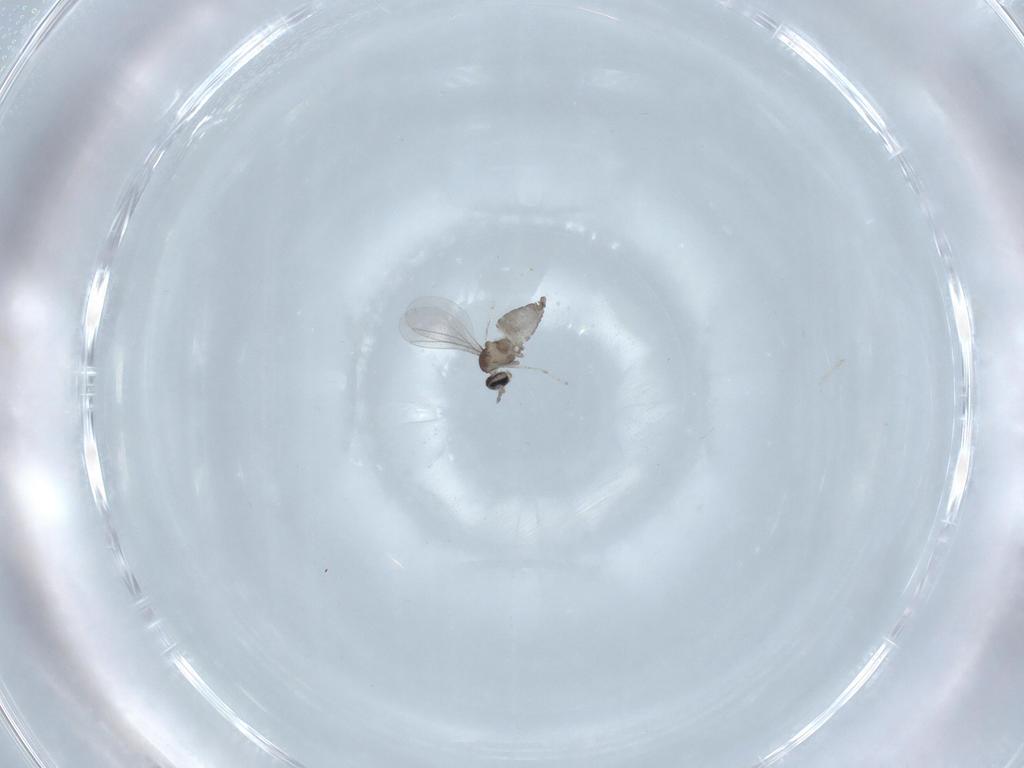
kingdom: Animalia
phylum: Arthropoda
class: Insecta
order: Diptera
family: Cecidomyiidae
